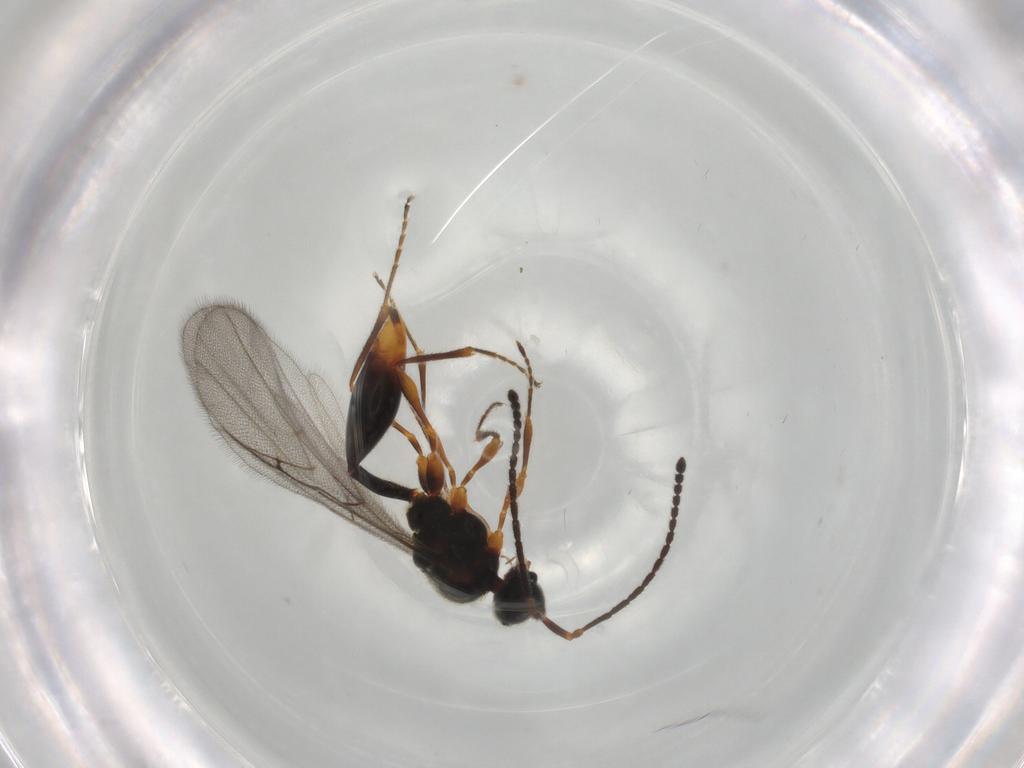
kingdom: Animalia
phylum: Arthropoda
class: Insecta
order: Hymenoptera
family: Diapriidae
